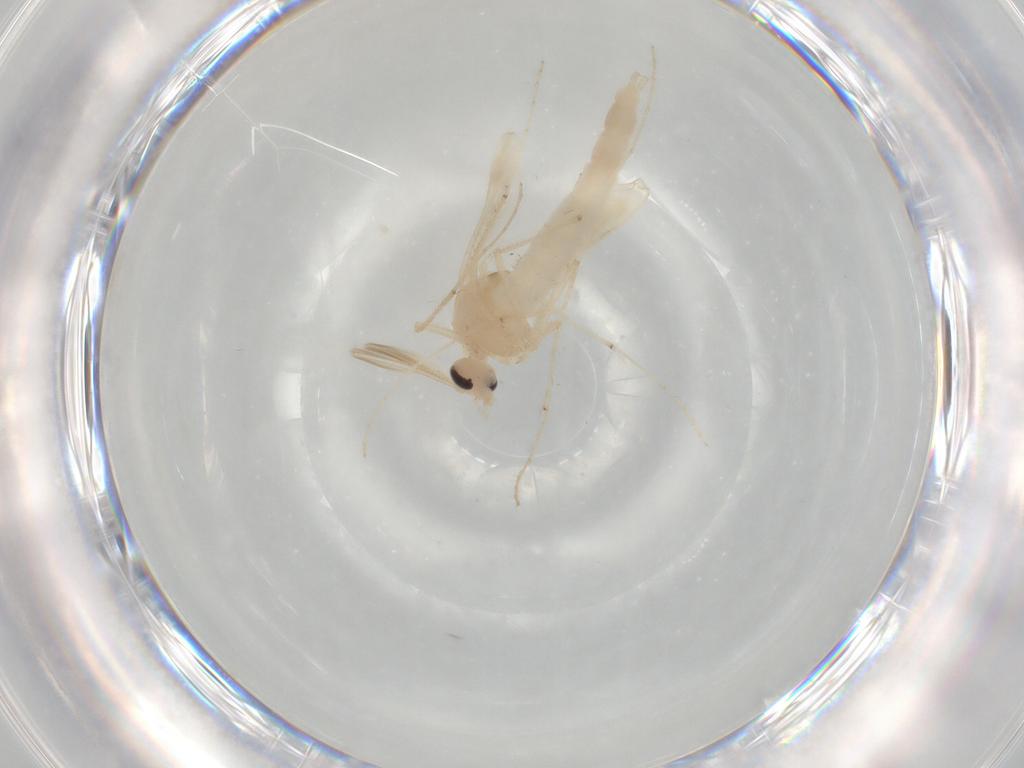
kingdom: Animalia
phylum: Arthropoda
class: Insecta
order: Diptera
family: Chironomidae
